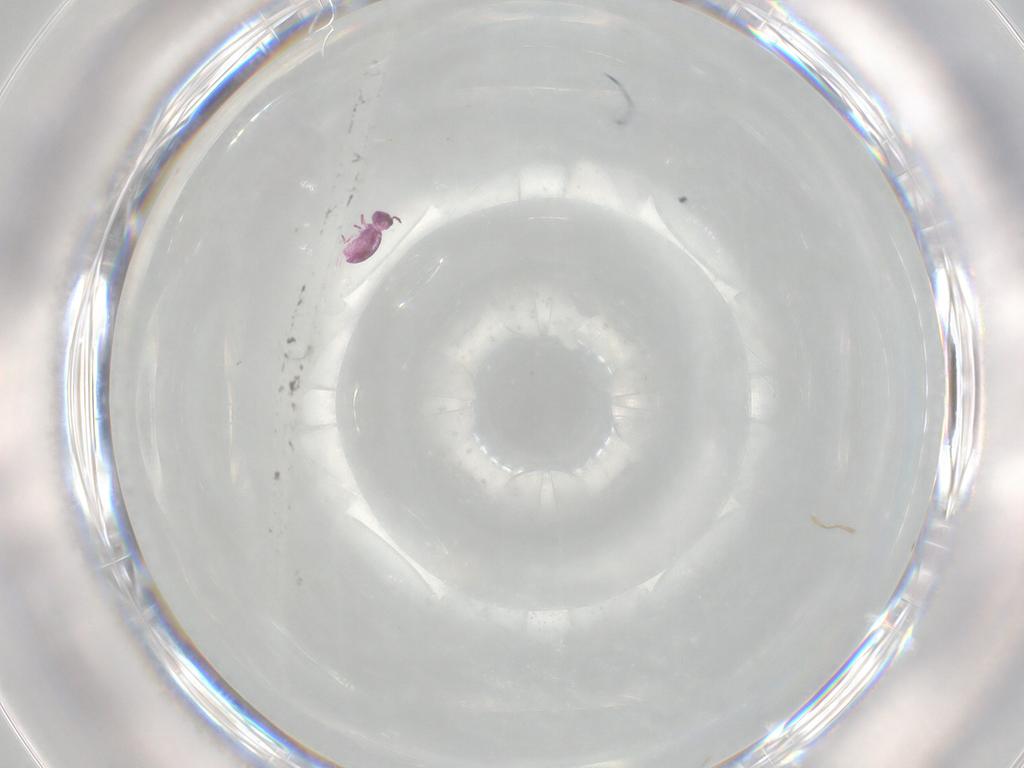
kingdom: Animalia
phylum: Arthropoda
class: Collembola
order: Symphypleona
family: Sminthurididae
